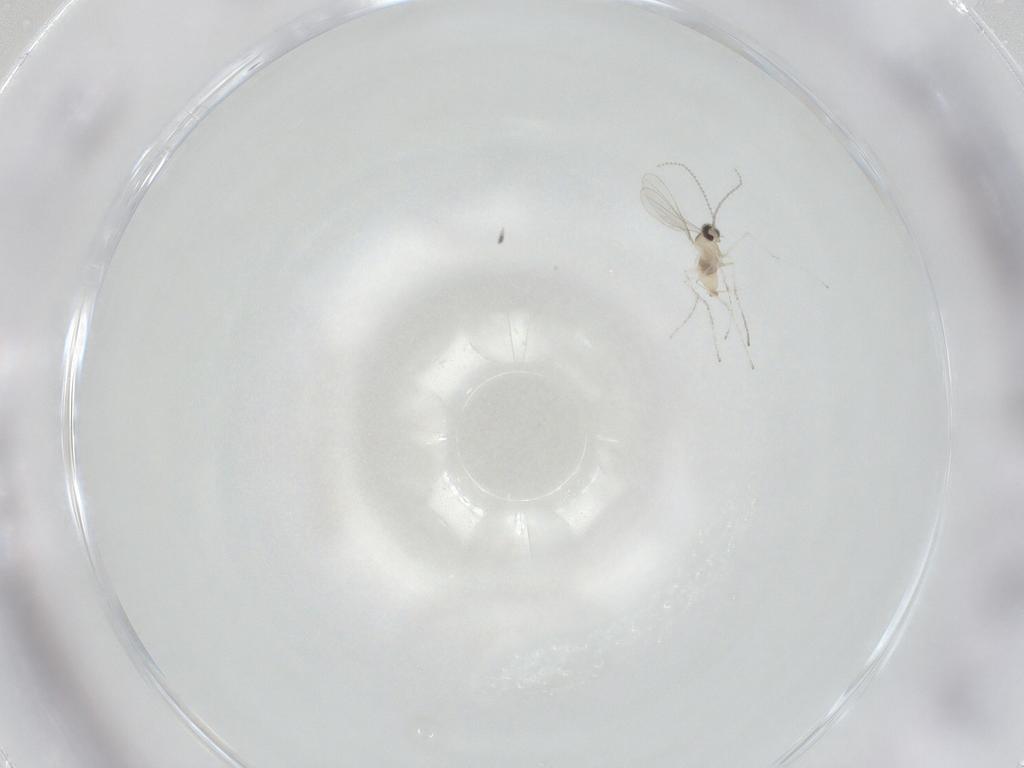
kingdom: Animalia
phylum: Arthropoda
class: Insecta
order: Diptera
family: Cecidomyiidae
